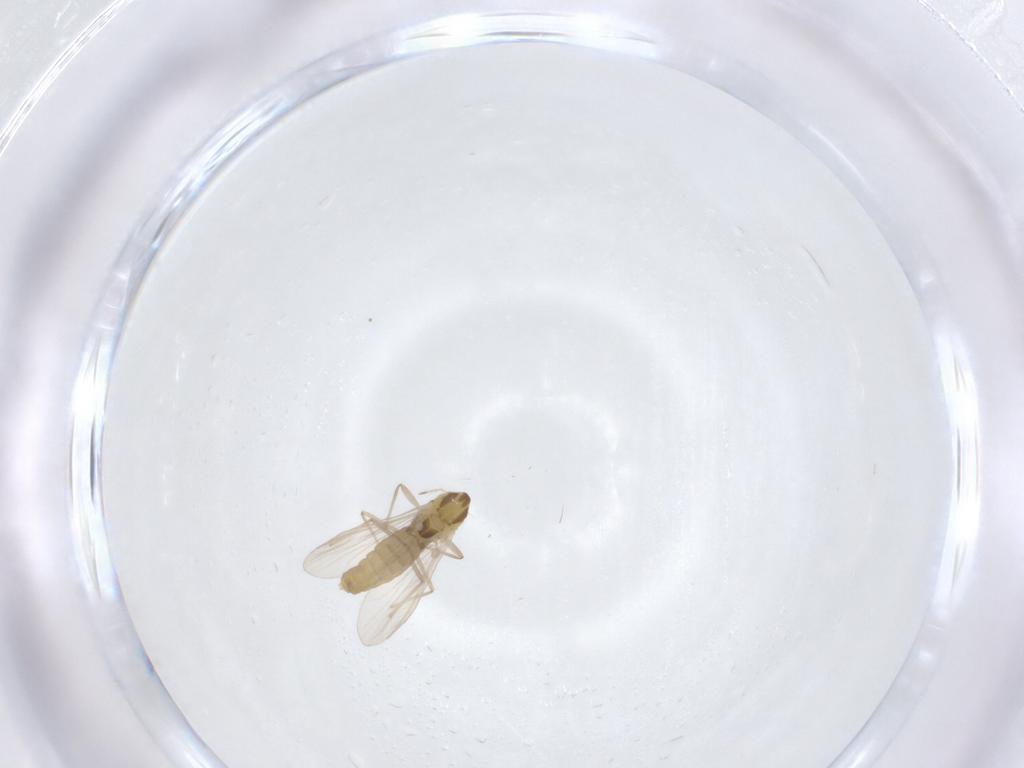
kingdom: Animalia
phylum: Arthropoda
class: Insecta
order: Diptera
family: Chironomidae
